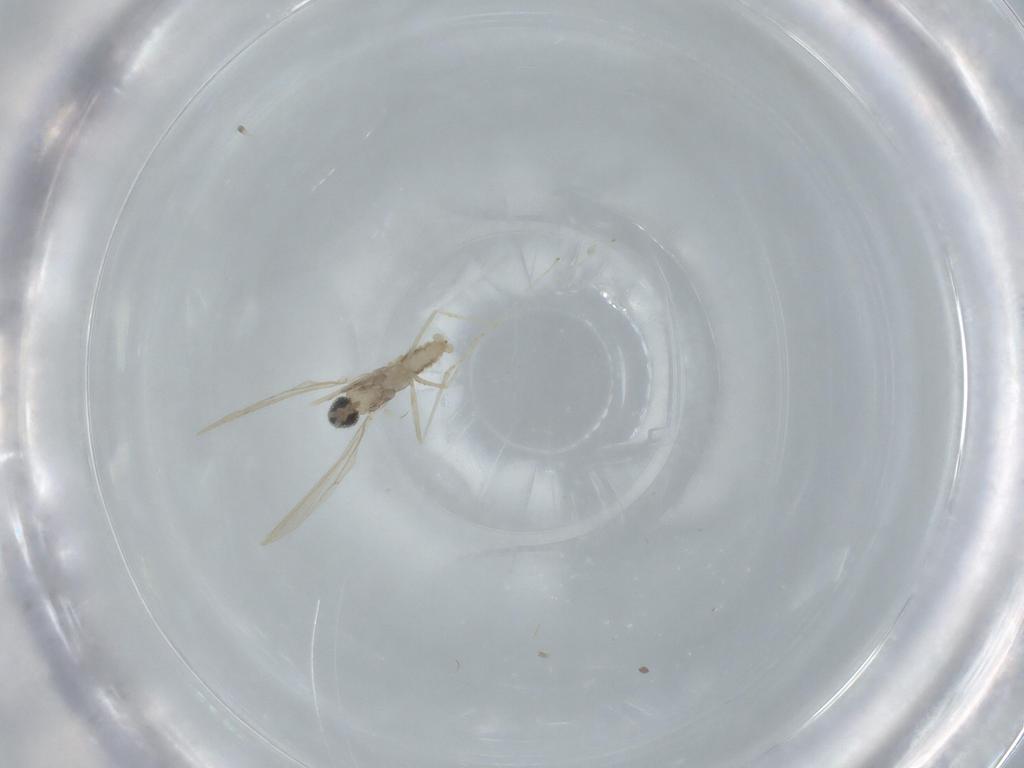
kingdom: Animalia
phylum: Arthropoda
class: Insecta
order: Diptera
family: Cecidomyiidae
